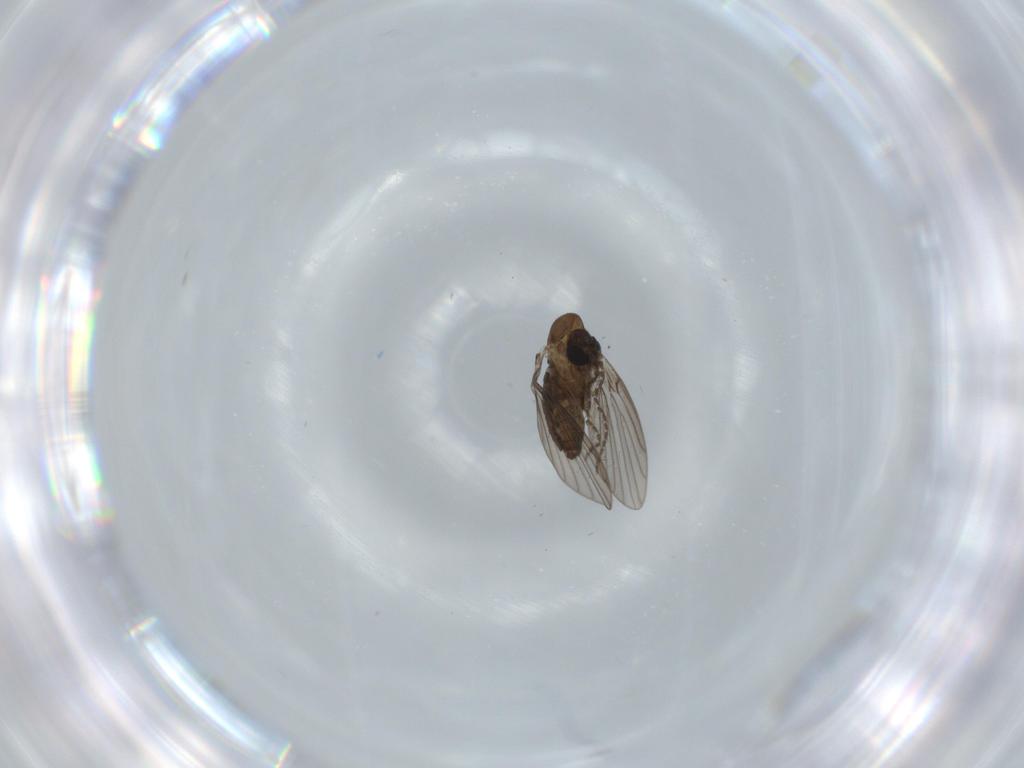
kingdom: Animalia
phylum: Arthropoda
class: Insecta
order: Diptera
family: Psychodidae
